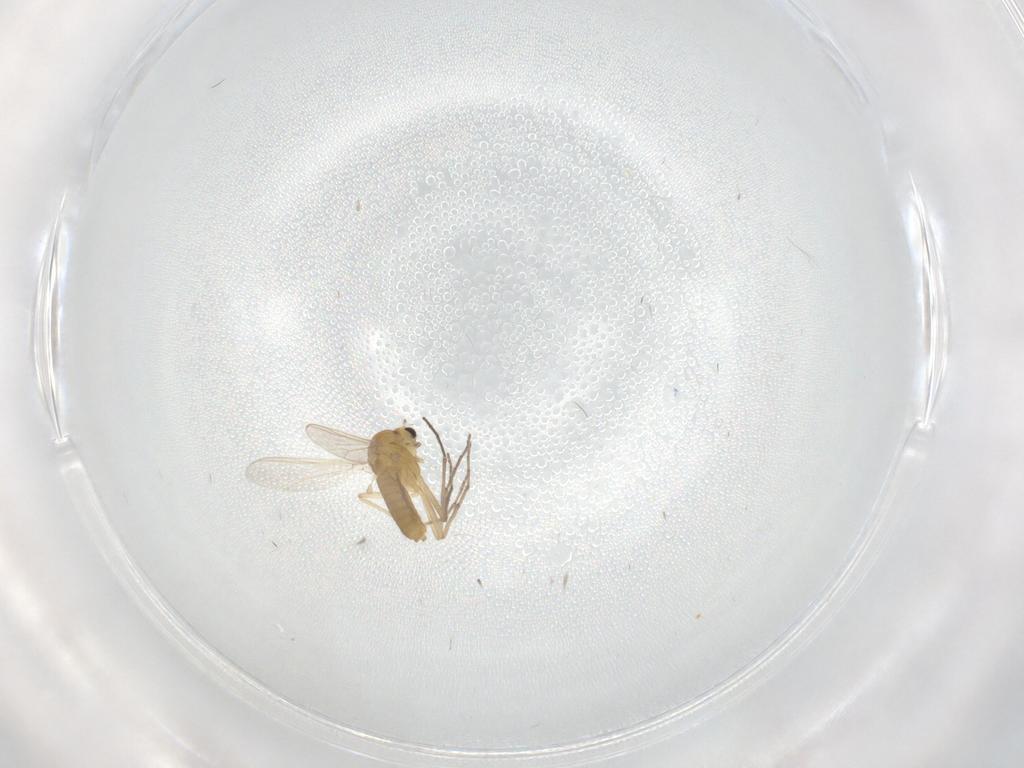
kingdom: Animalia
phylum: Arthropoda
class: Insecta
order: Diptera
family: Chironomidae
